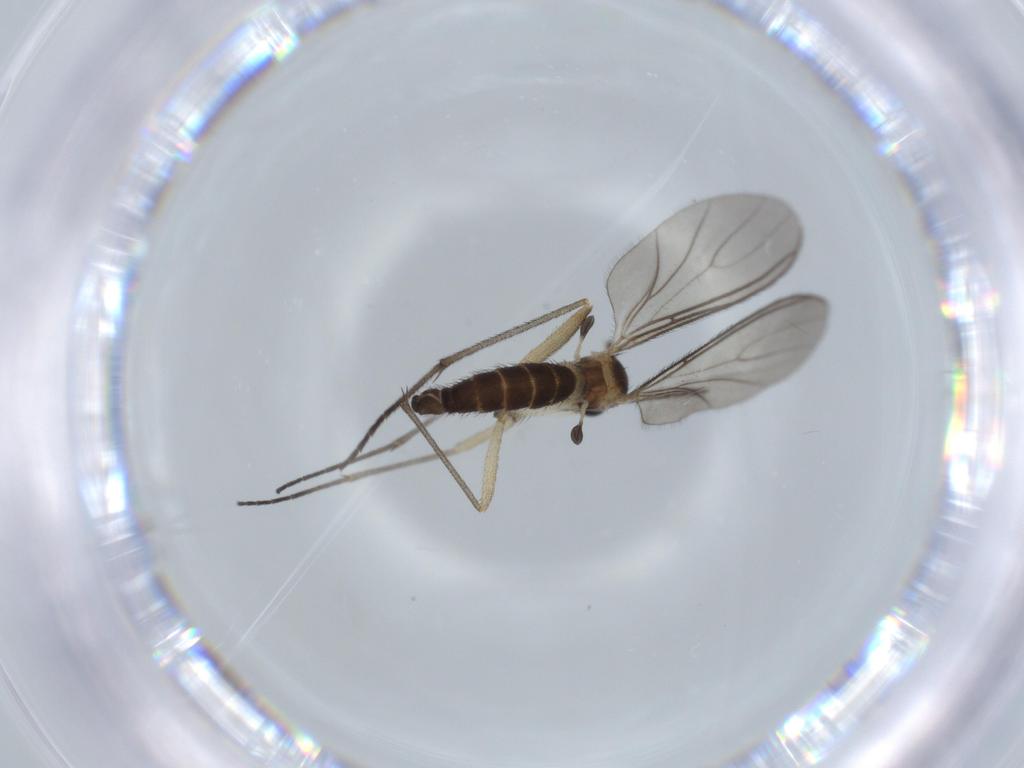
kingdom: Animalia
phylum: Arthropoda
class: Insecta
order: Diptera
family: Sciaridae
